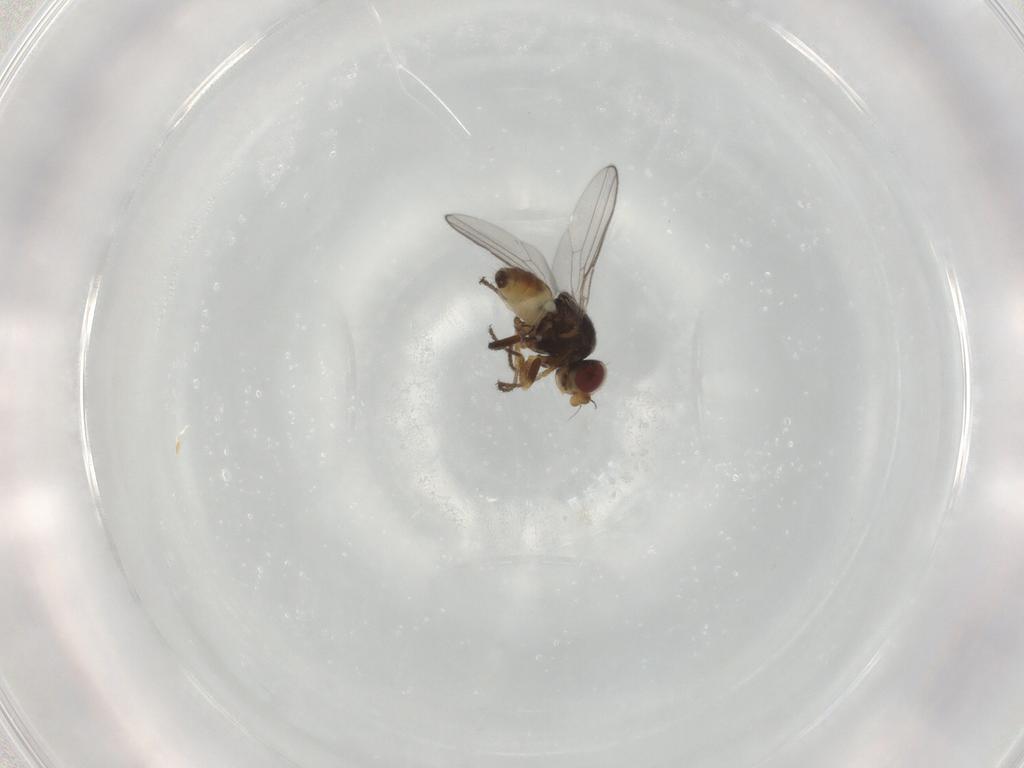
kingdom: Animalia
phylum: Arthropoda
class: Insecta
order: Diptera
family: Chloropidae
